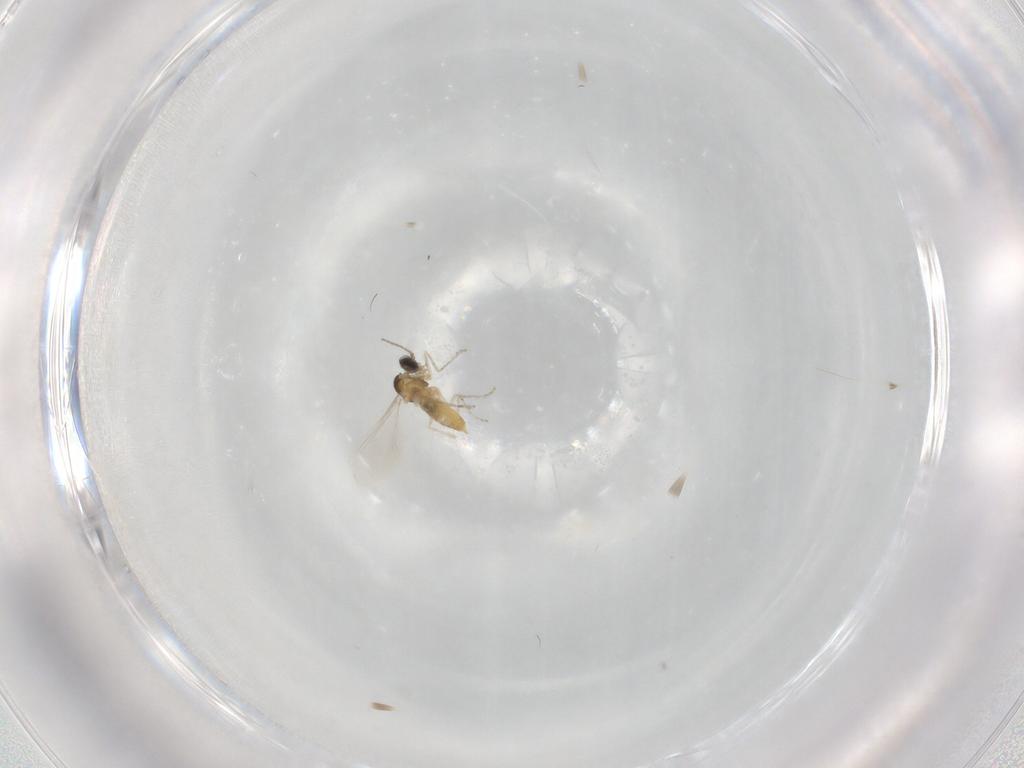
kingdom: Animalia
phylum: Arthropoda
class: Insecta
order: Diptera
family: Cecidomyiidae
